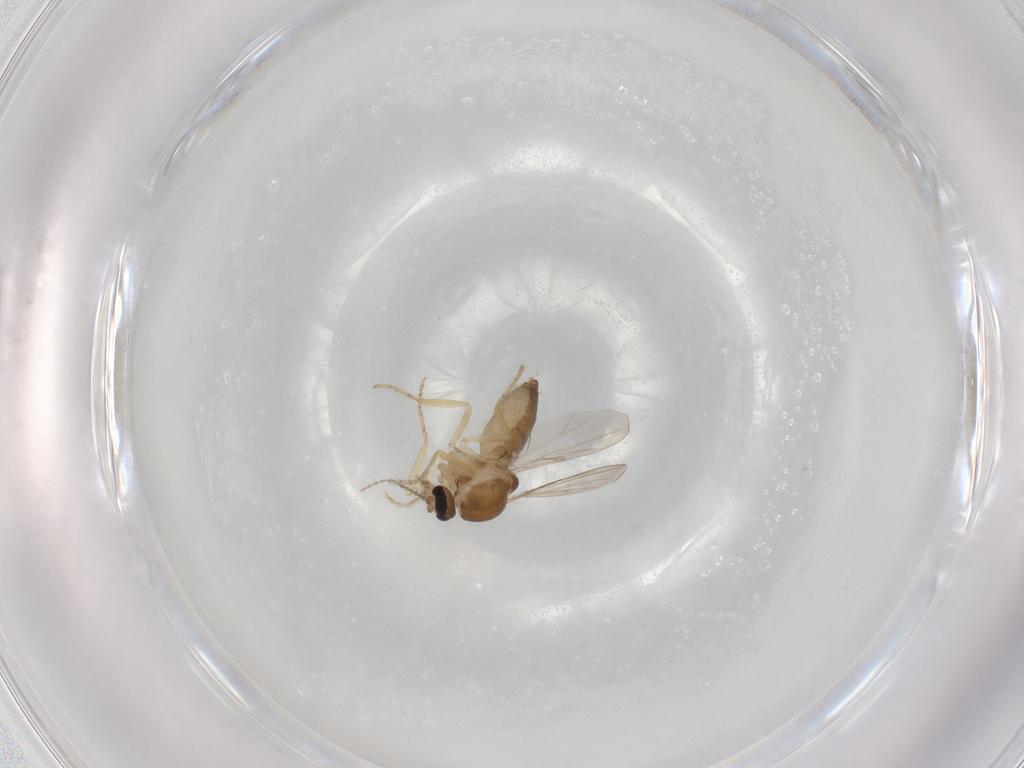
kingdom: Animalia
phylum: Arthropoda
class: Insecta
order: Diptera
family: Ceratopogonidae
